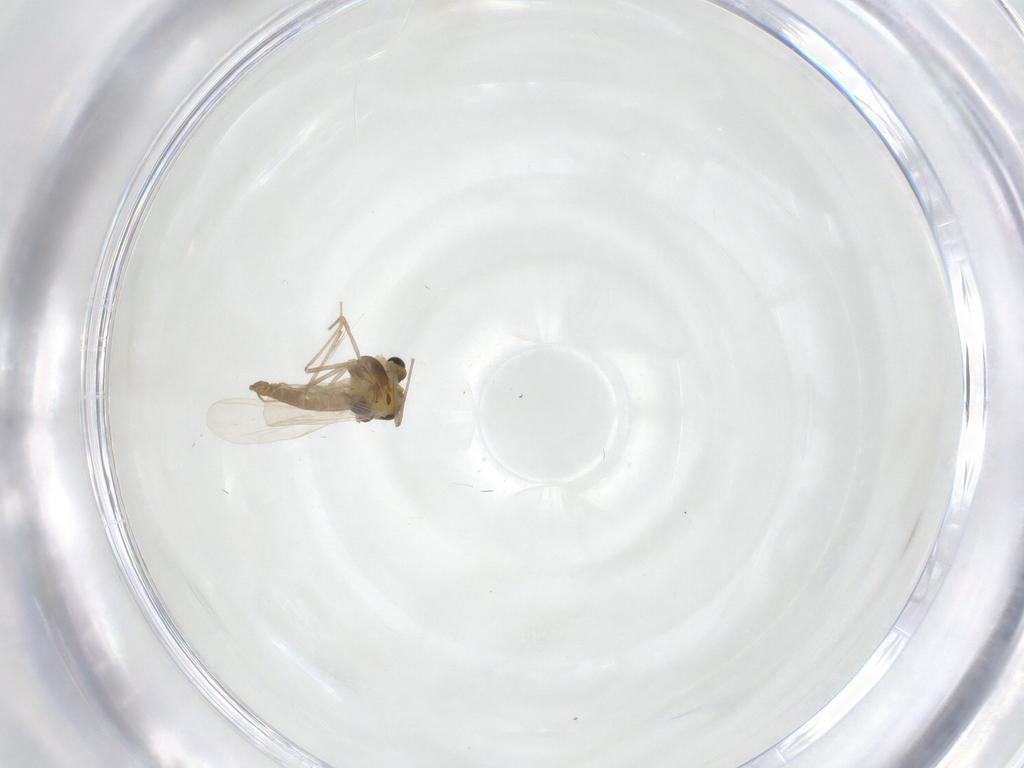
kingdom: Animalia
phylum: Arthropoda
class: Insecta
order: Diptera
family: Chironomidae
